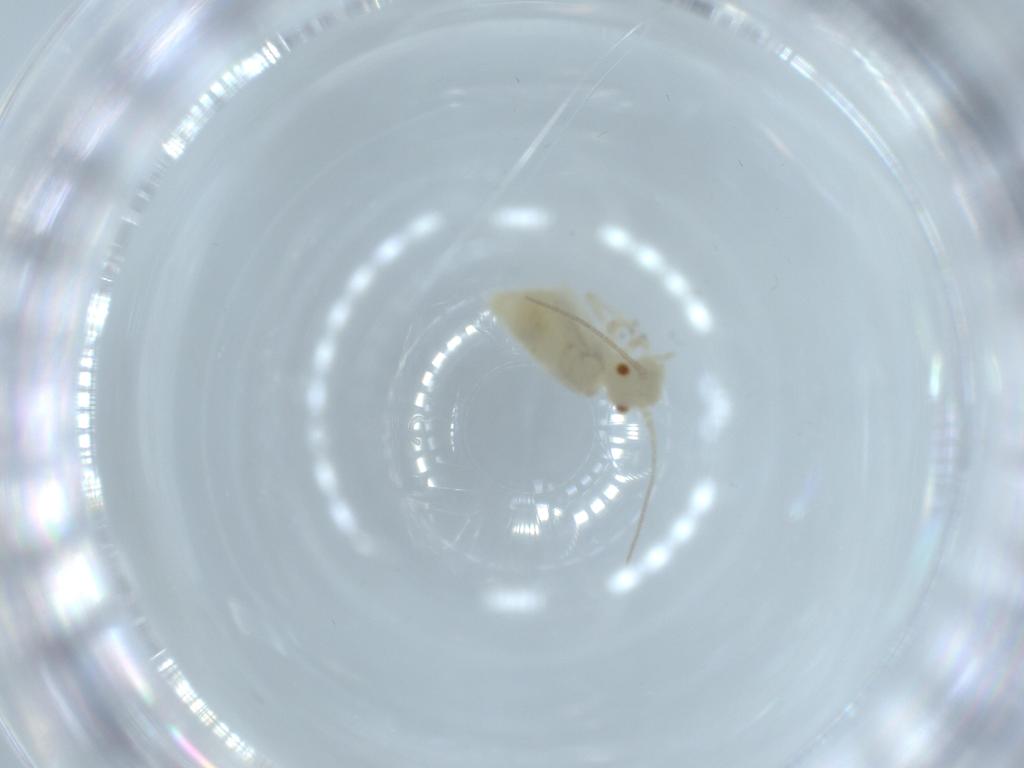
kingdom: Animalia
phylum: Arthropoda
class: Insecta
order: Psocodea
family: Caeciliusidae
